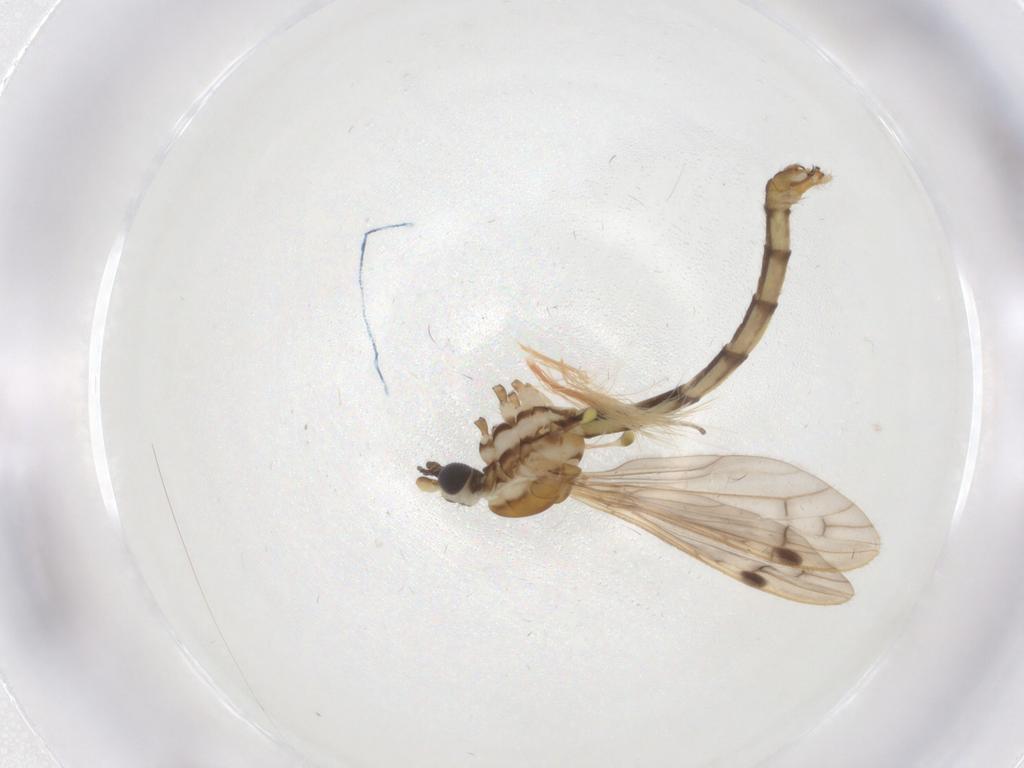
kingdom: Animalia
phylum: Arthropoda
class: Insecta
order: Diptera
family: Cecidomyiidae
